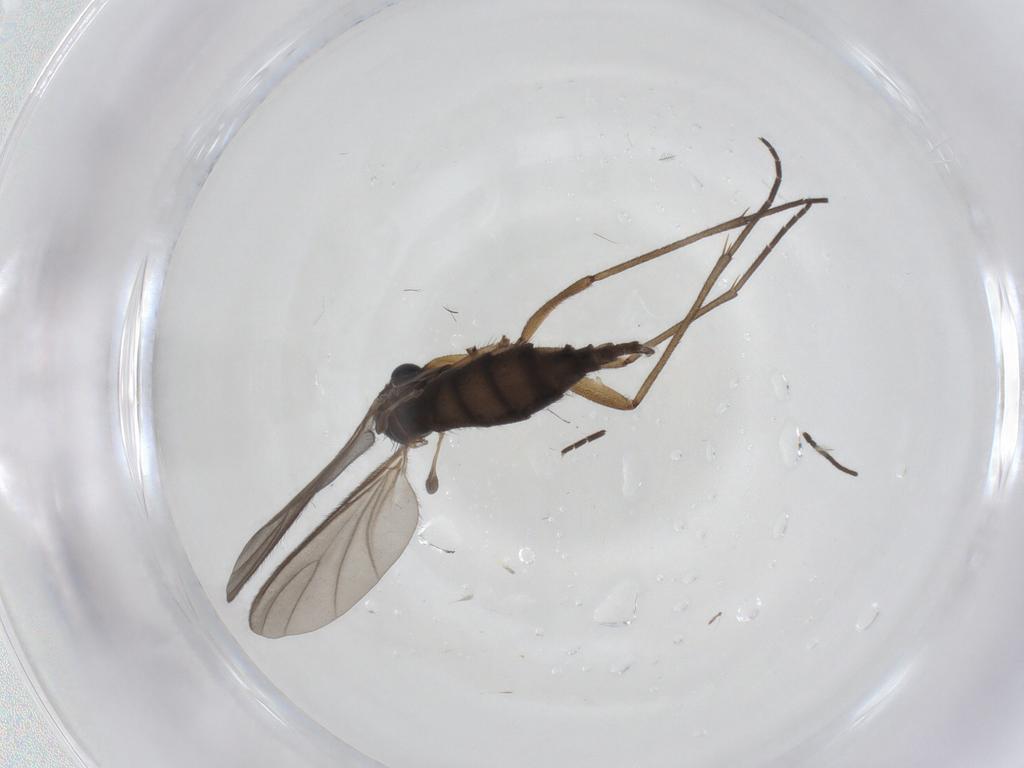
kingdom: Animalia
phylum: Arthropoda
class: Insecta
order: Diptera
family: Sciaridae
